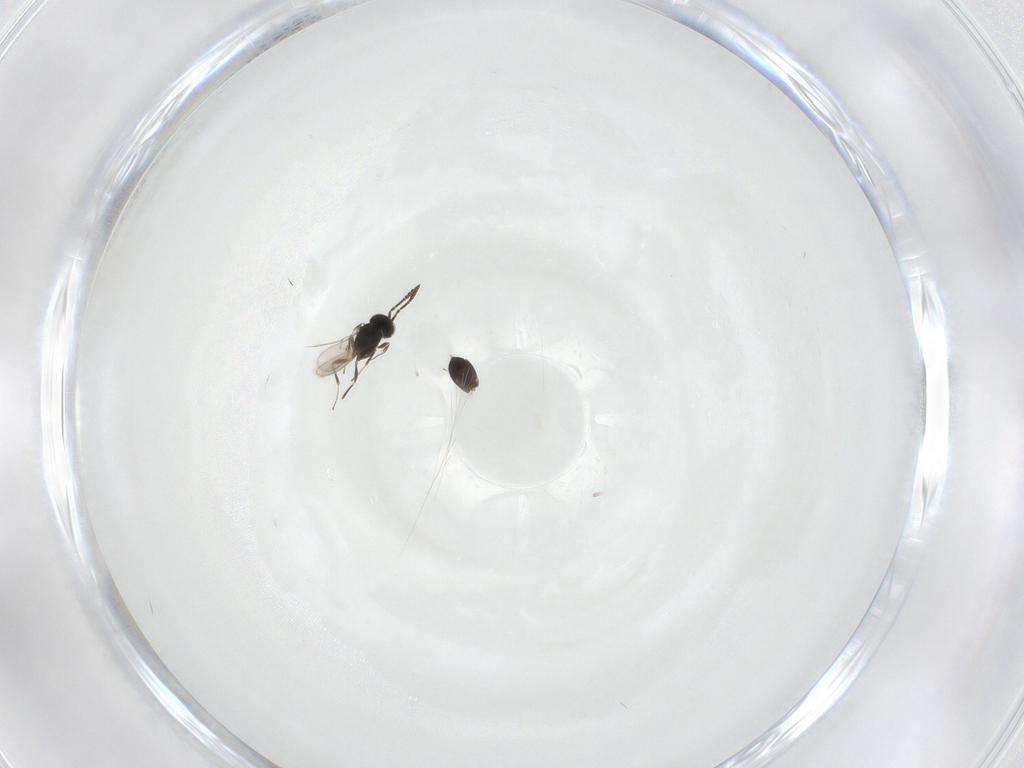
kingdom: Animalia
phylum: Arthropoda
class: Insecta
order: Hymenoptera
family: Scelionidae
